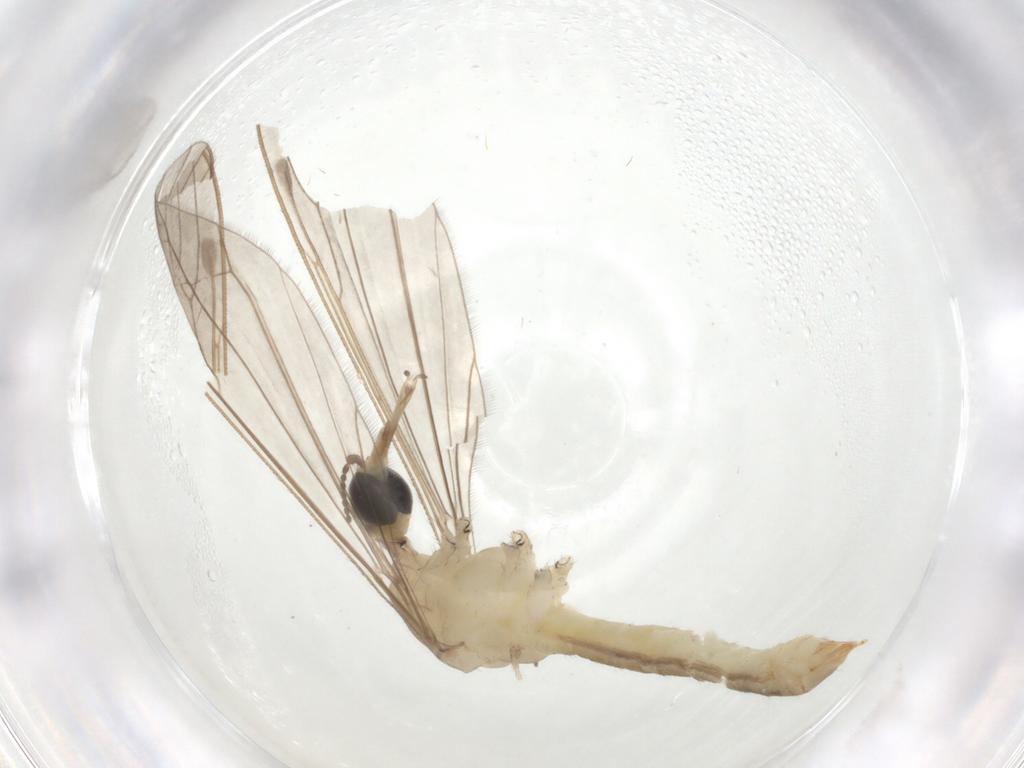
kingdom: Animalia
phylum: Arthropoda
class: Insecta
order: Diptera
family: Limoniidae
